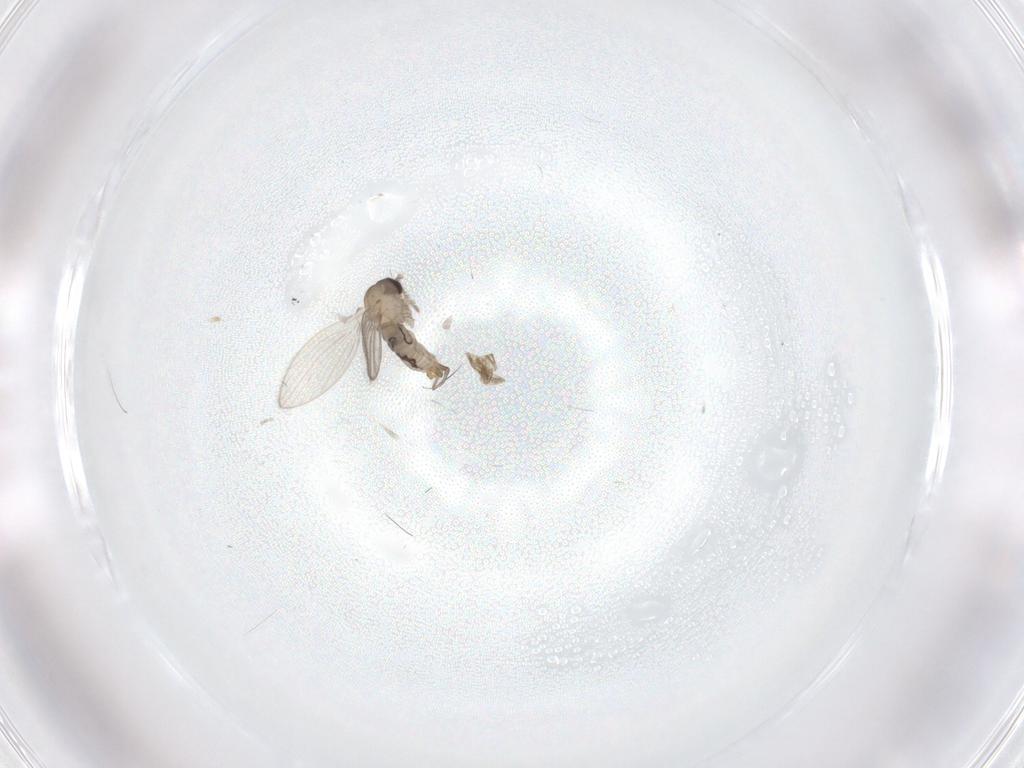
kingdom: Animalia
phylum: Arthropoda
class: Insecta
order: Diptera
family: Psychodidae
